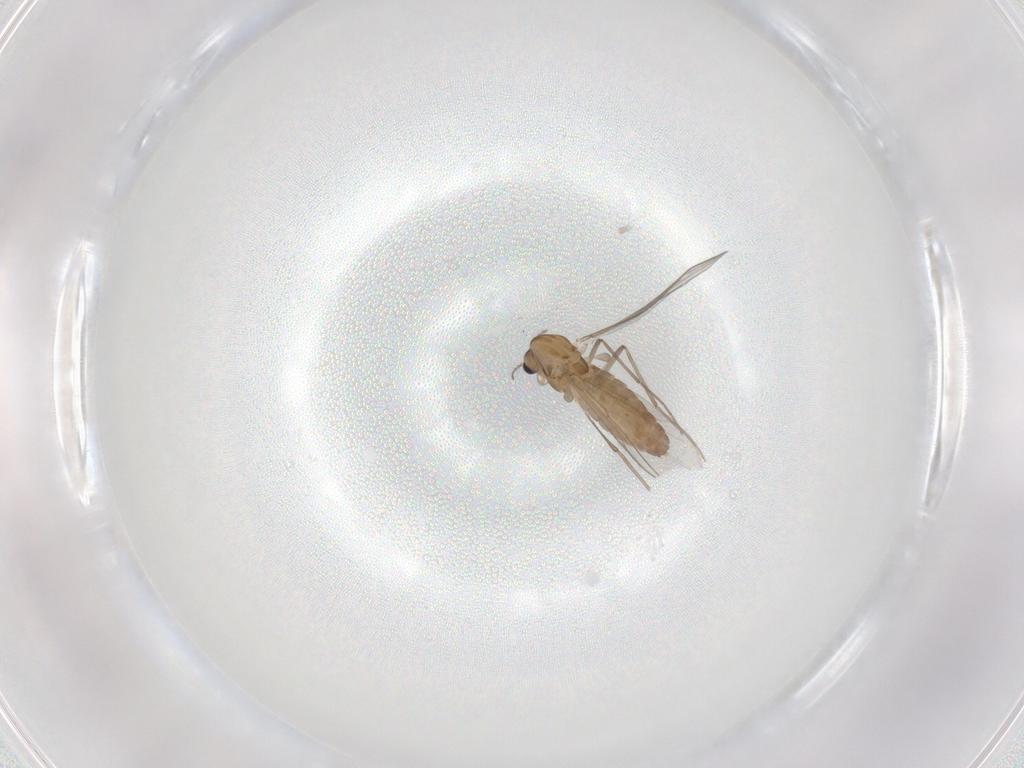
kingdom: Animalia
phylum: Arthropoda
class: Insecta
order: Diptera
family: Chironomidae
